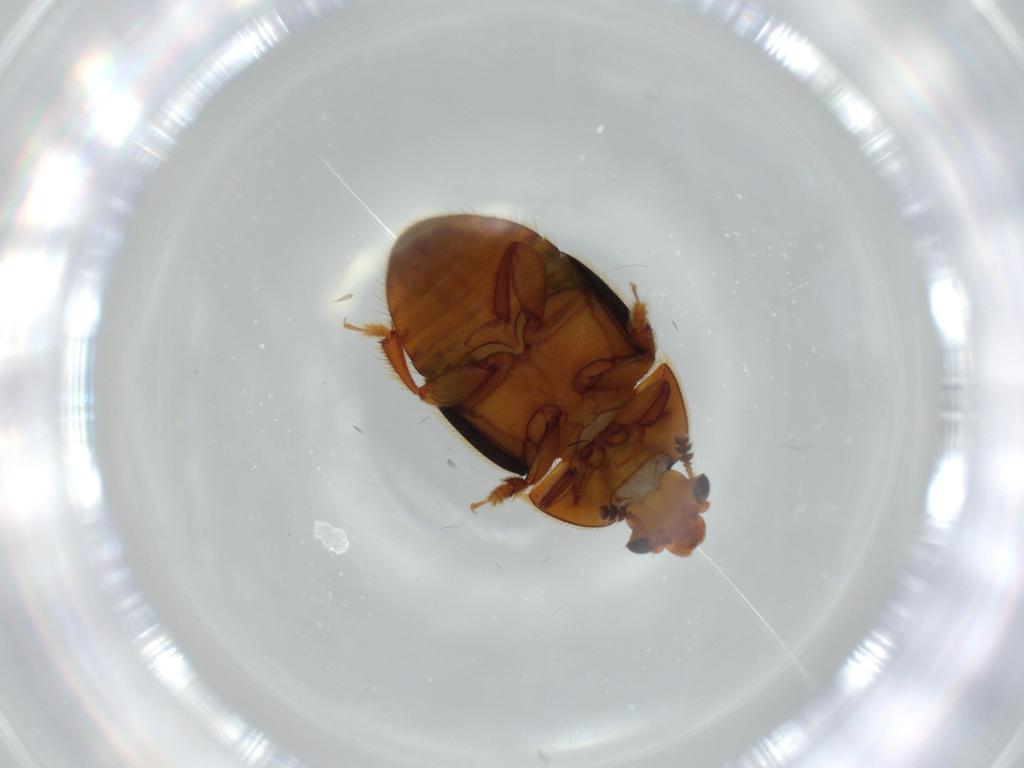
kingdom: Animalia
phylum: Arthropoda
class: Insecta
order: Coleoptera
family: Nitidulidae
